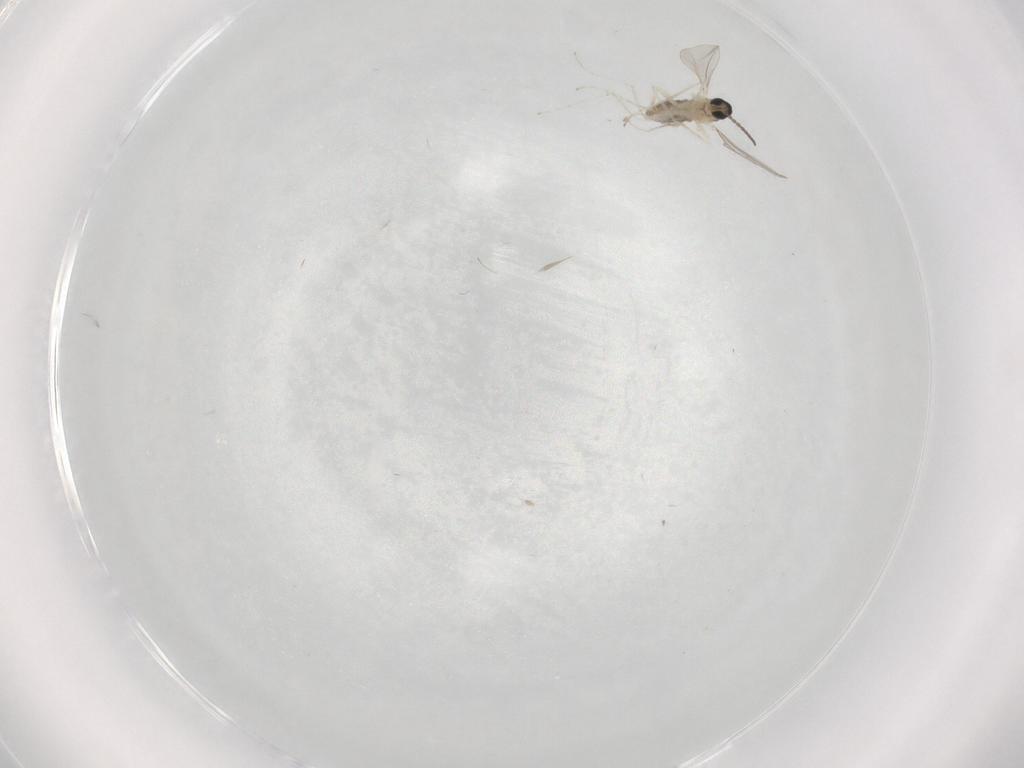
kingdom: Animalia
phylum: Arthropoda
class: Insecta
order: Diptera
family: Cecidomyiidae
